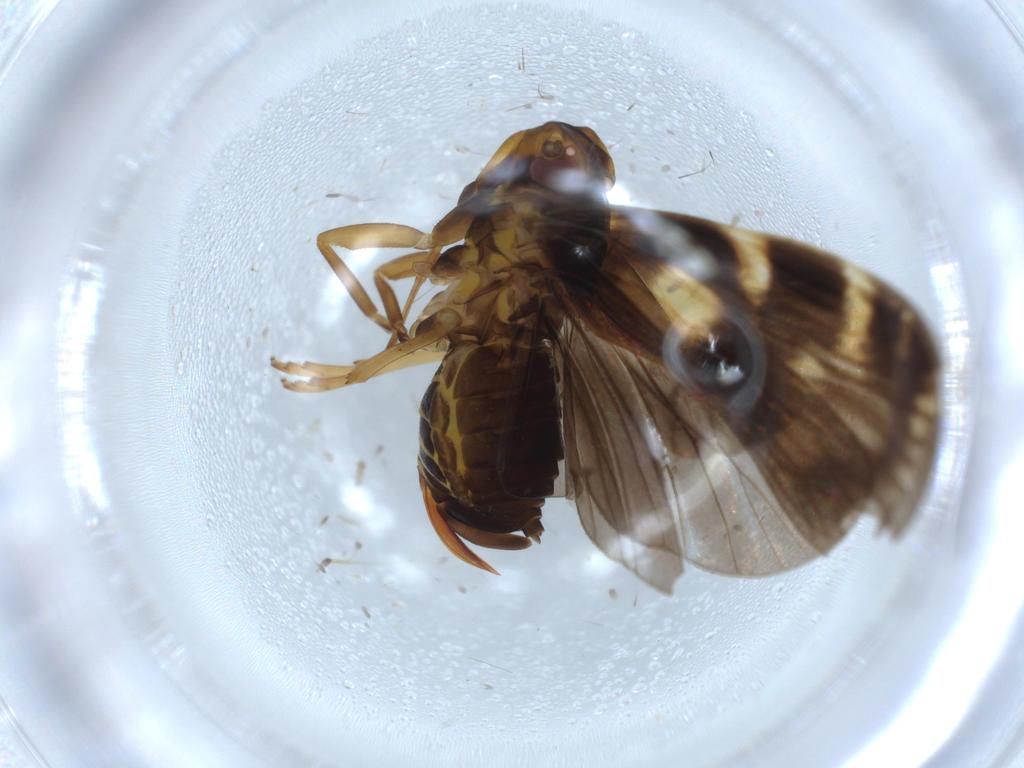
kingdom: Animalia
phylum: Arthropoda
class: Insecta
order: Hemiptera
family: Cixiidae
